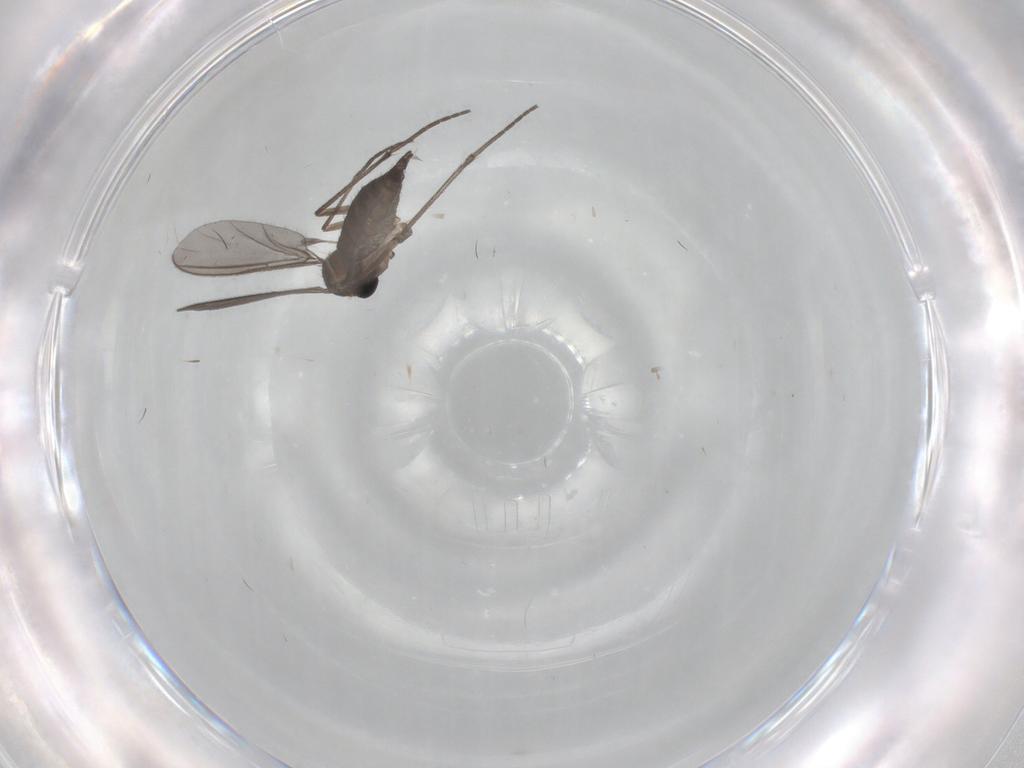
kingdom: Animalia
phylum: Arthropoda
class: Insecta
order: Diptera
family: Cecidomyiidae
